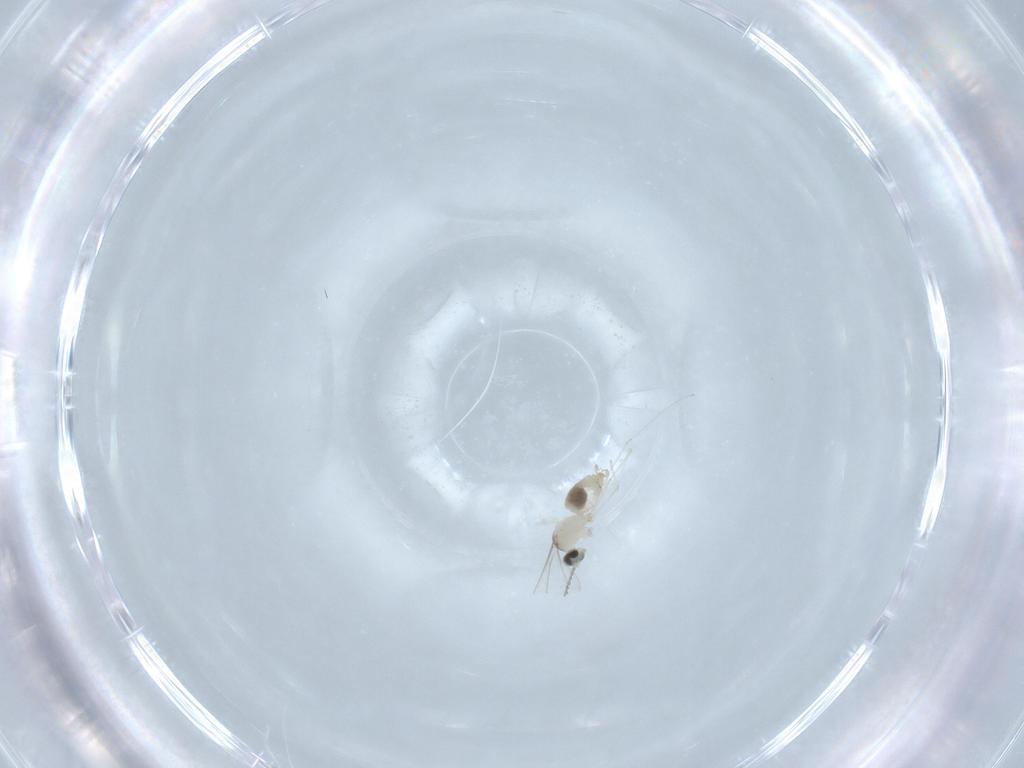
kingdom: Animalia
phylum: Arthropoda
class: Insecta
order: Diptera
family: Cecidomyiidae
